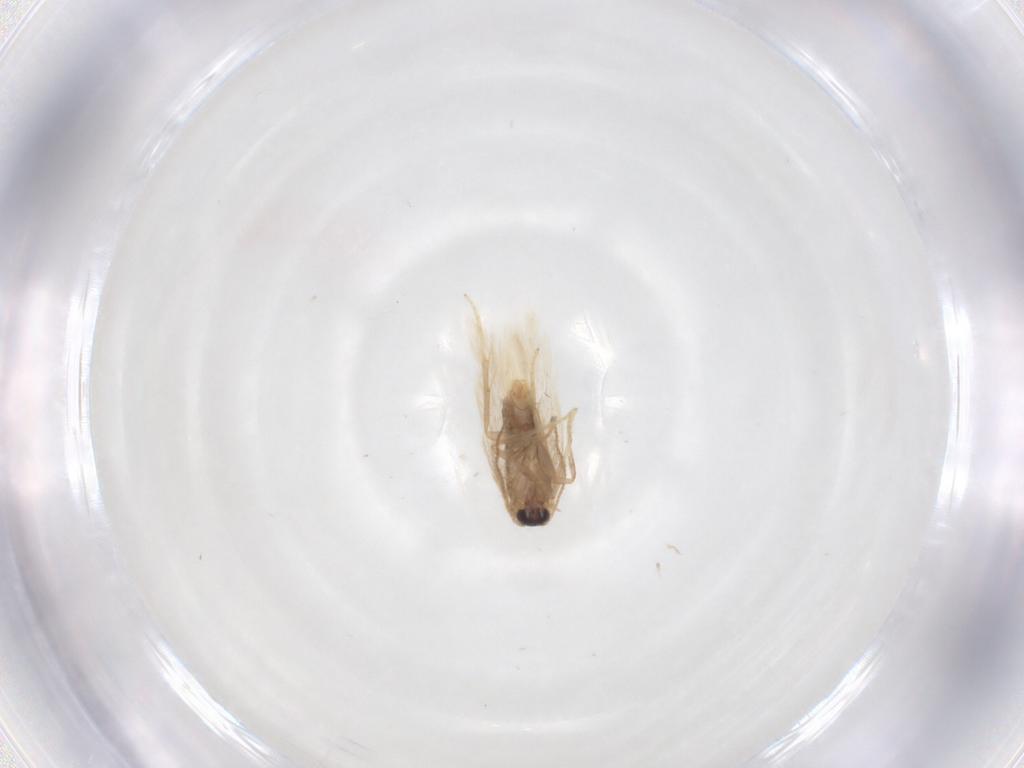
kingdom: Animalia
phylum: Arthropoda
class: Insecta
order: Lepidoptera
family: Nepticulidae
